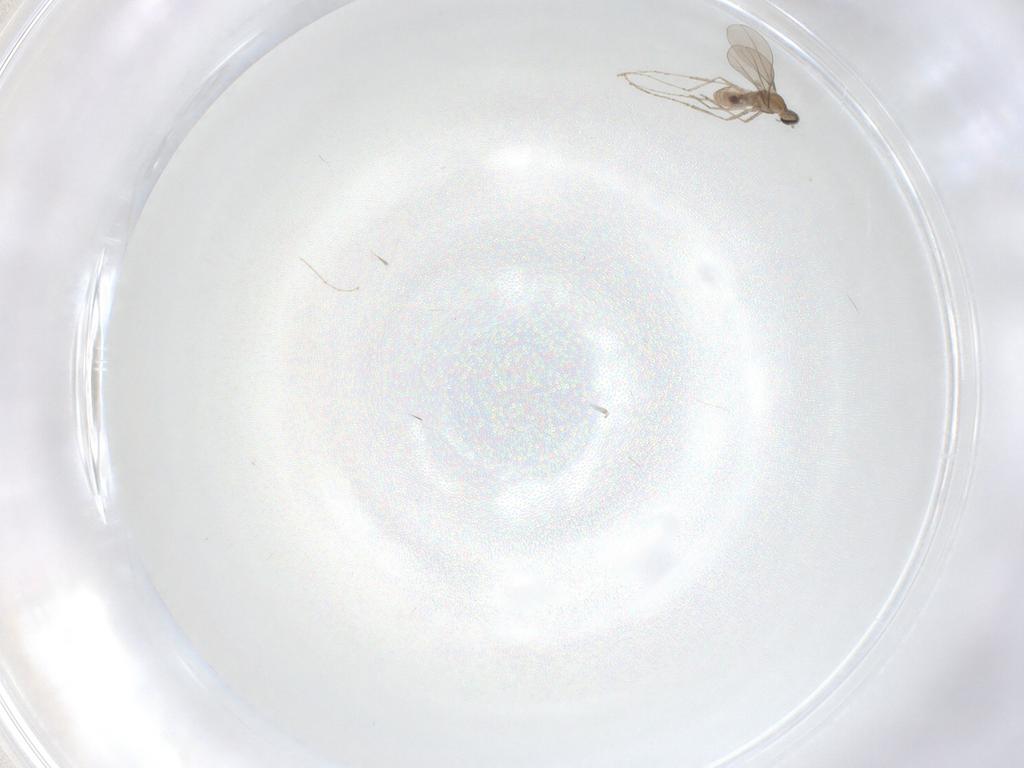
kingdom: Animalia
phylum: Arthropoda
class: Insecta
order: Diptera
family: Cecidomyiidae
